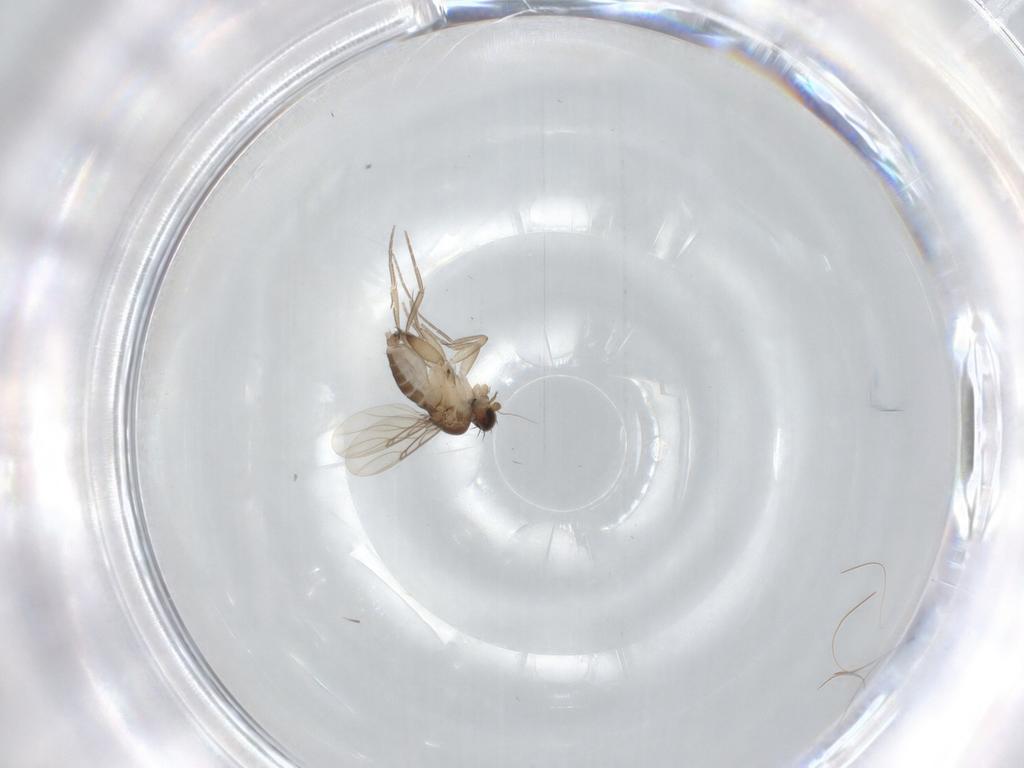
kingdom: Animalia
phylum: Arthropoda
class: Insecta
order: Diptera
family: Phoridae
